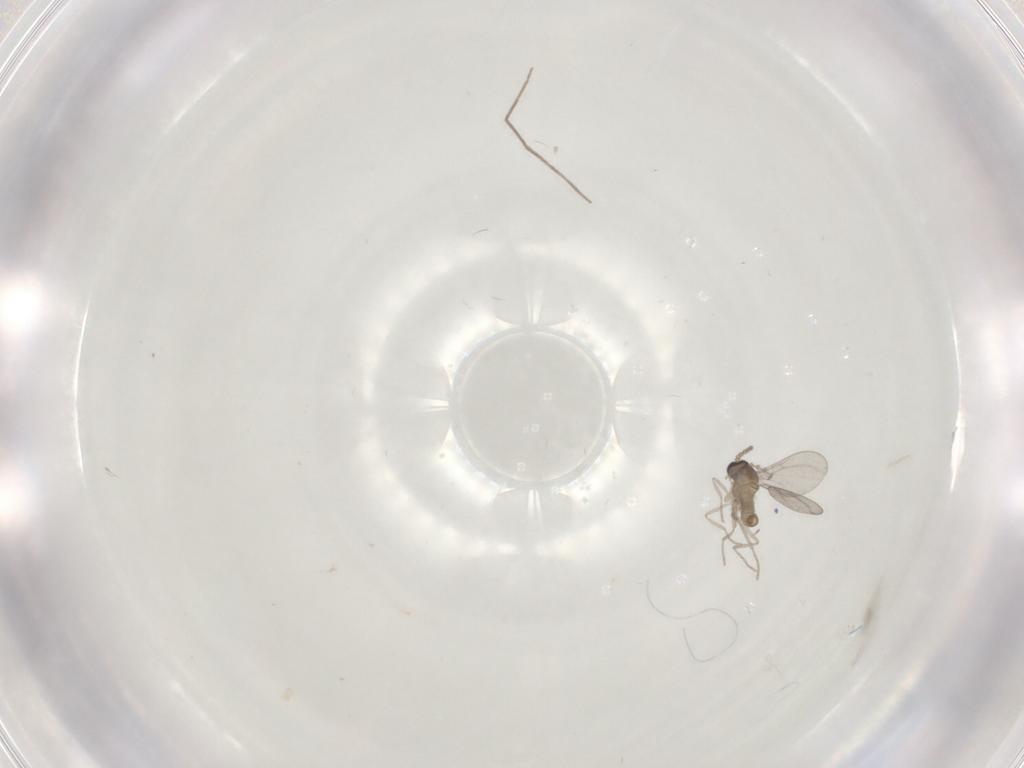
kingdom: Animalia
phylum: Arthropoda
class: Insecta
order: Diptera
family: Cecidomyiidae
